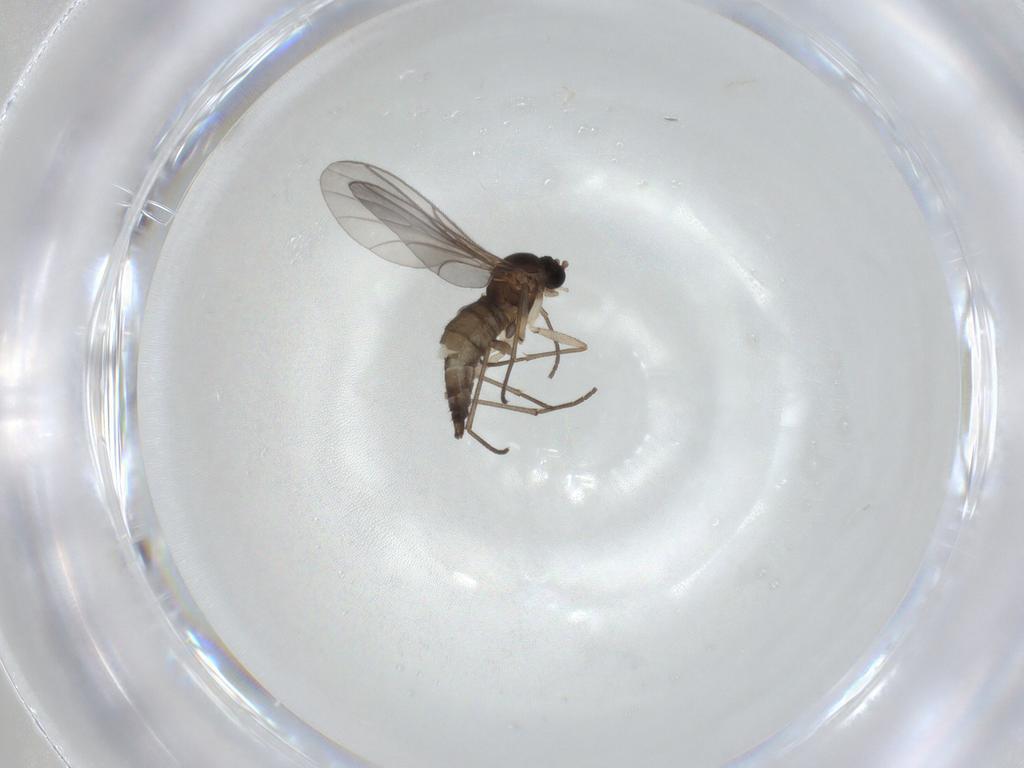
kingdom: Animalia
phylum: Arthropoda
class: Insecta
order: Diptera
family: Sciaridae
